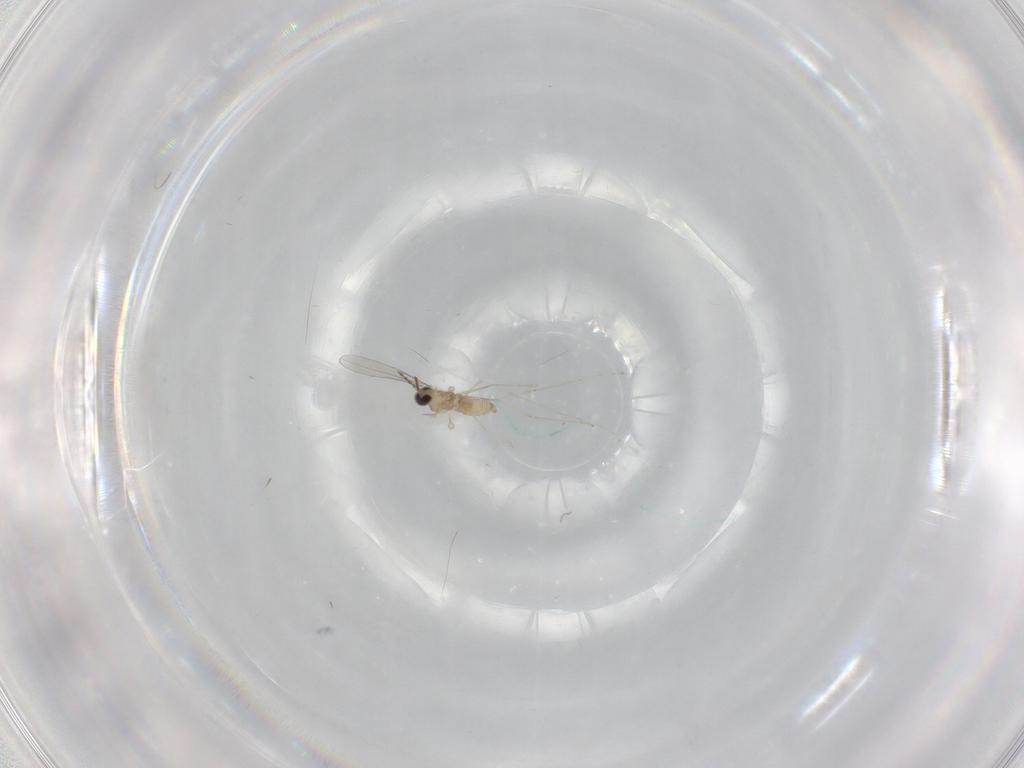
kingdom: Animalia
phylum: Arthropoda
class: Insecta
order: Diptera
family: Cecidomyiidae
